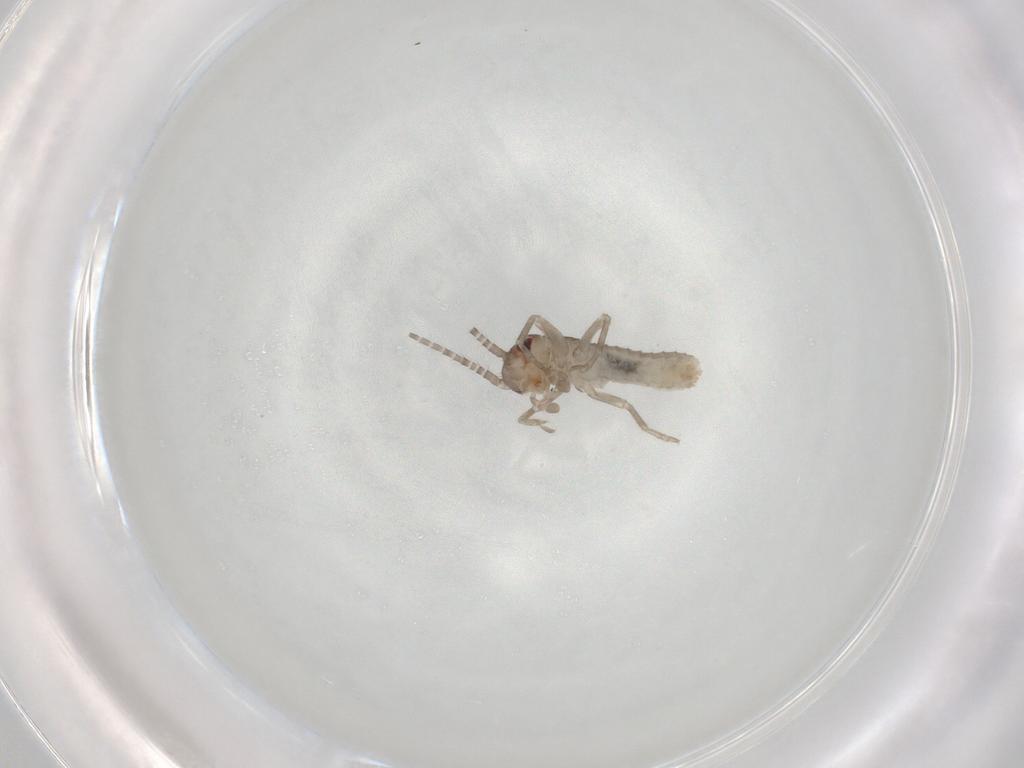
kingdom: Animalia
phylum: Arthropoda
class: Insecta
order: Orthoptera
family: Mogoplistidae
